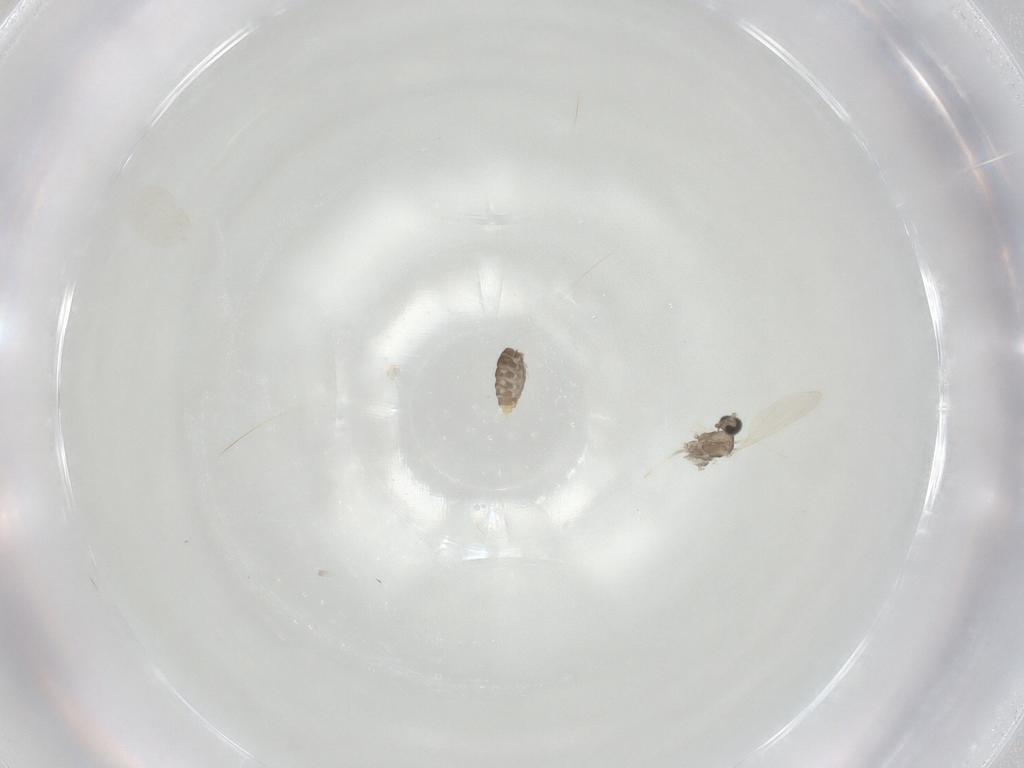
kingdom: Animalia
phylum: Arthropoda
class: Insecta
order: Diptera
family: Cecidomyiidae
